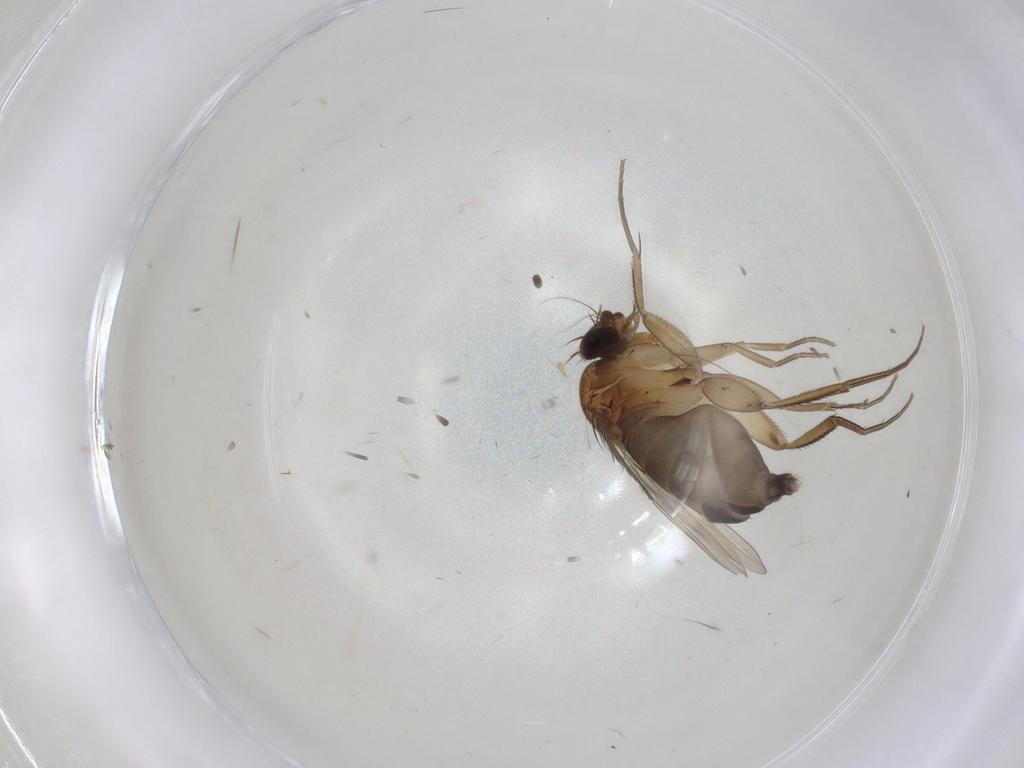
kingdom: Animalia
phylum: Arthropoda
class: Insecta
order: Diptera
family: Phoridae
